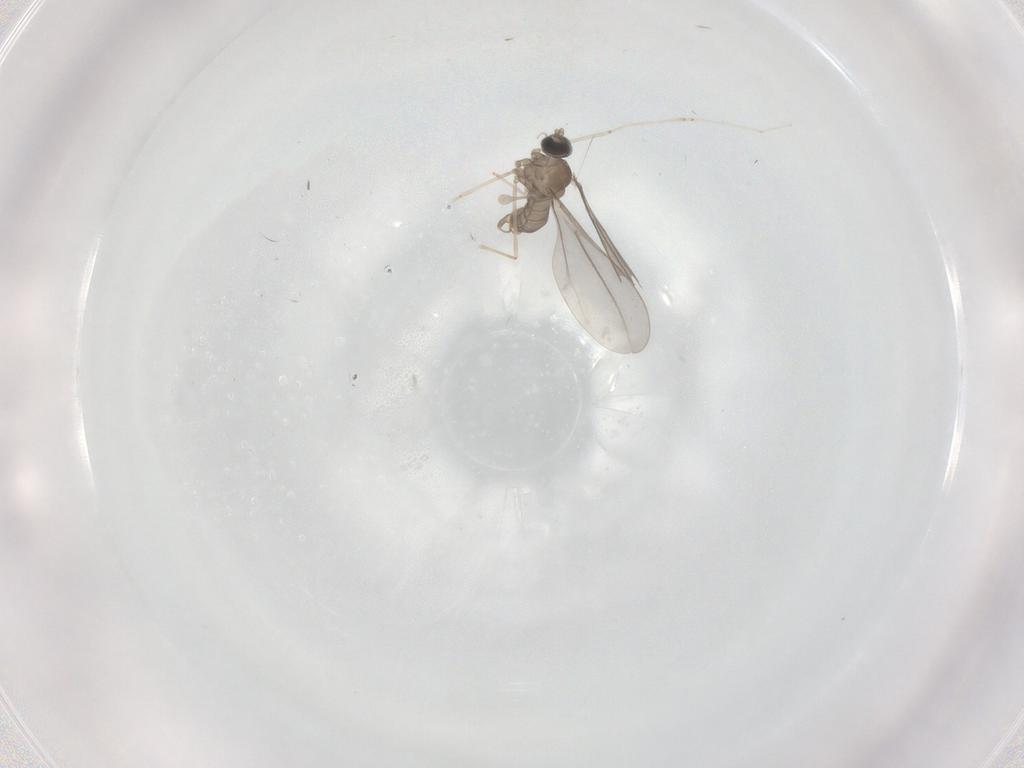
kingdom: Animalia
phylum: Arthropoda
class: Insecta
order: Diptera
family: Cecidomyiidae
